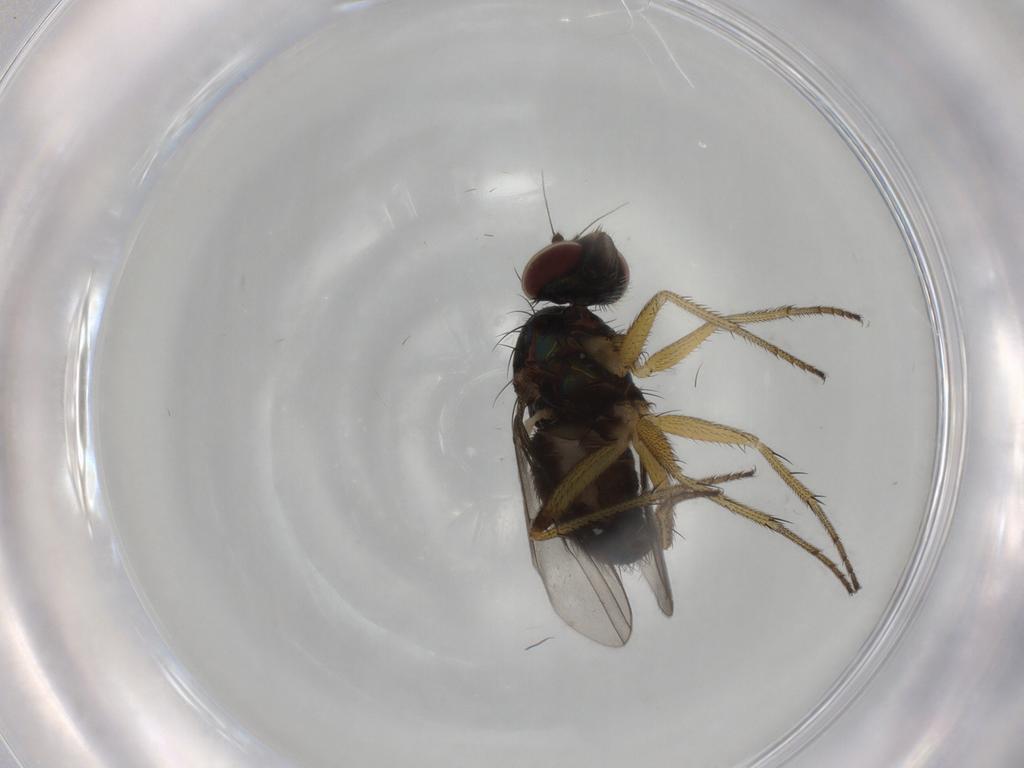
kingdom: Animalia
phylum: Arthropoda
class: Insecta
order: Diptera
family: Dolichopodidae
